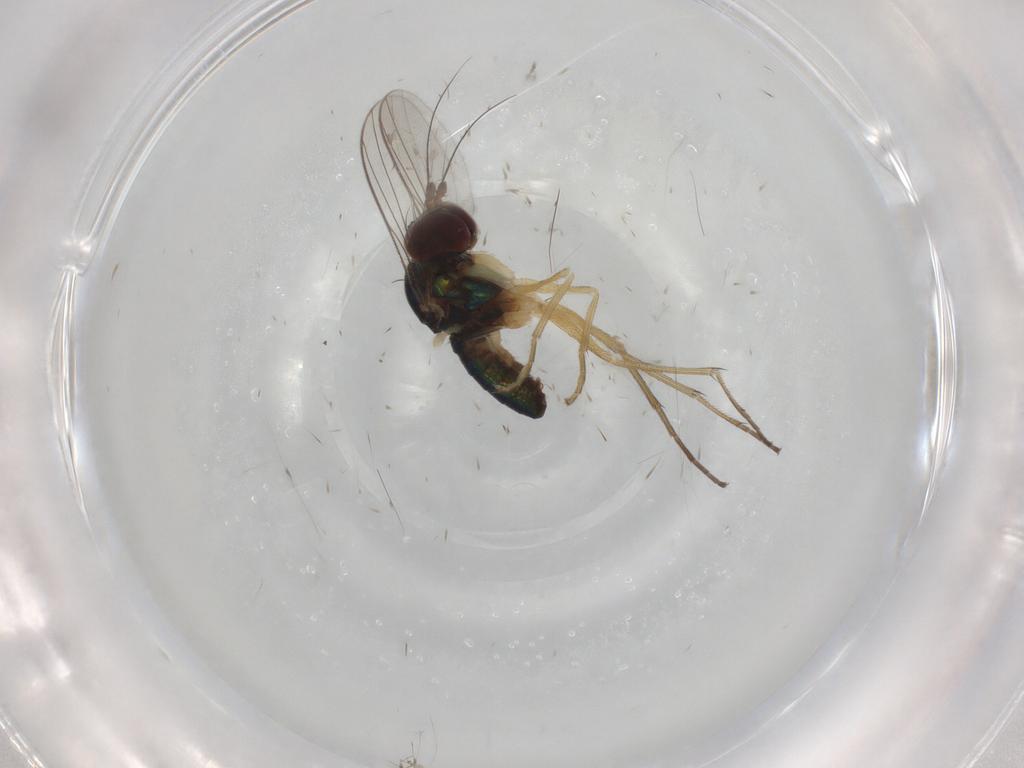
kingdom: Animalia
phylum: Arthropoda
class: Insecta
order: Diptera
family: Dolichopodidae
